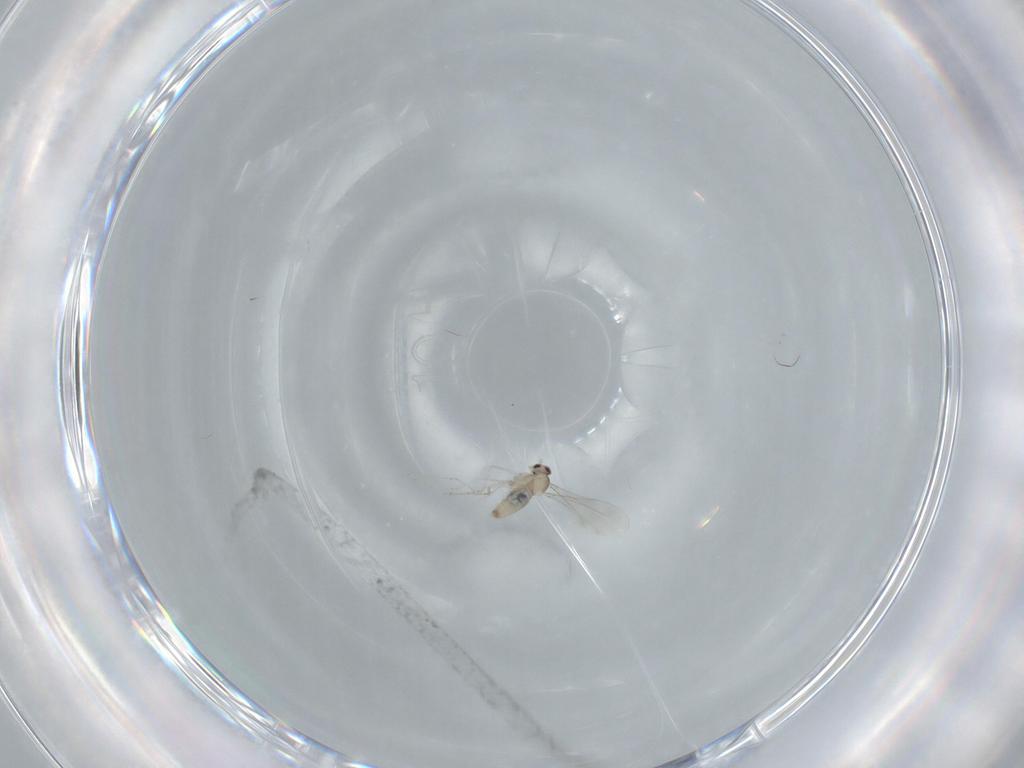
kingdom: Animalia
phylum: Arthropoda
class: Insecta
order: Diptera
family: Cecidomyiidae
